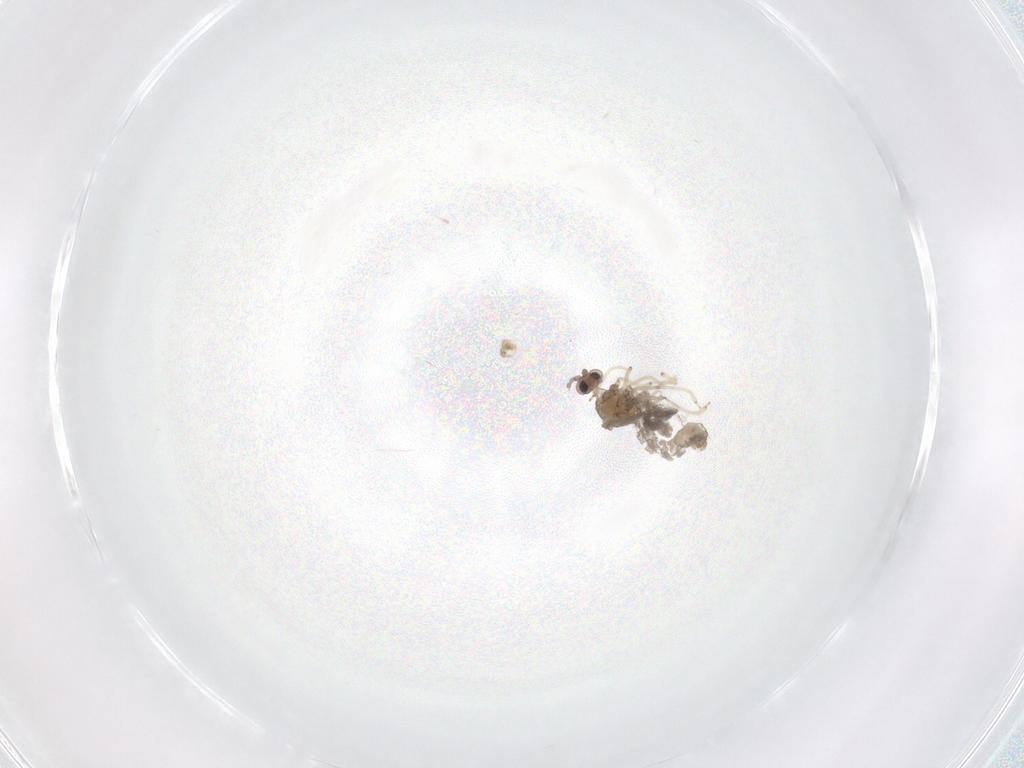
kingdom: Animalia
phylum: Arthropoda
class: Insecta
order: Diptera
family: Cecidomyiidae
